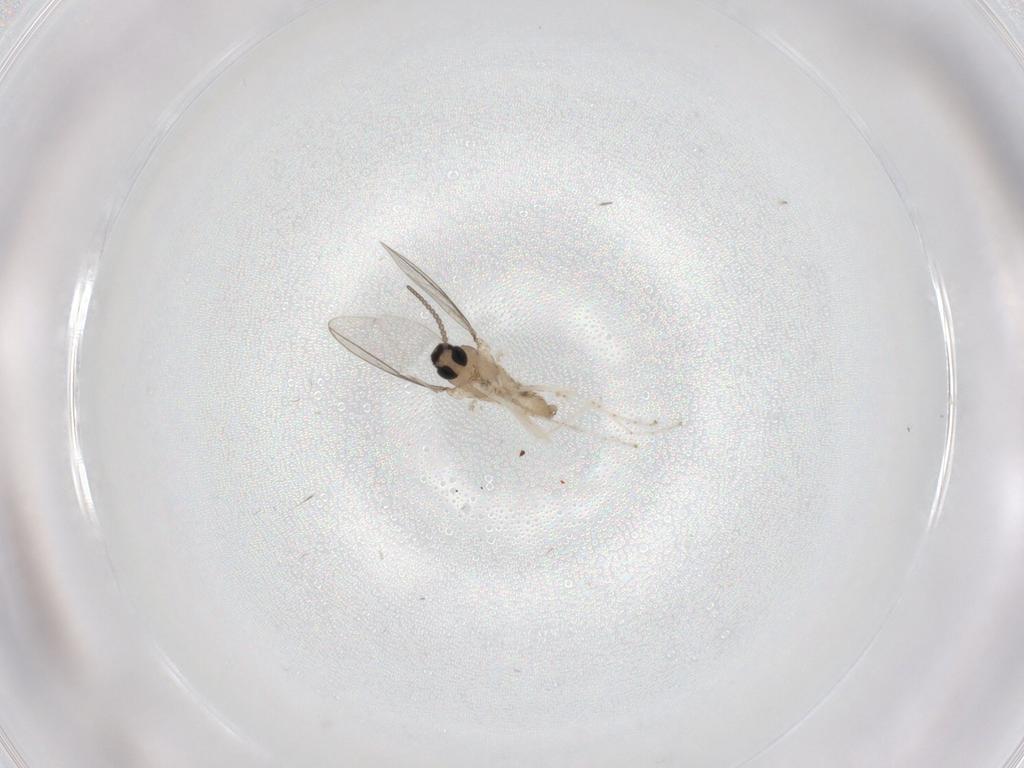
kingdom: Animalia
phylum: Arthropoda
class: Insecta
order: Diptera
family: Cecidomyiidae
